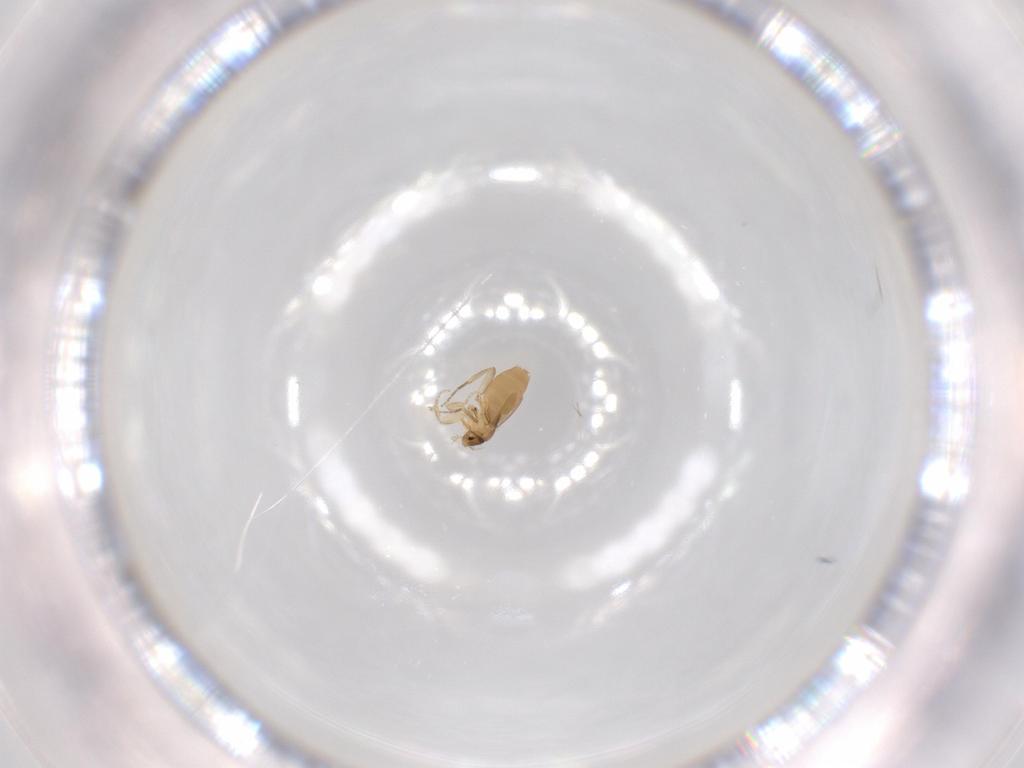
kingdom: Animalia
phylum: Arthropoda
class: Insecta
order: Diptera
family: Phoridae
